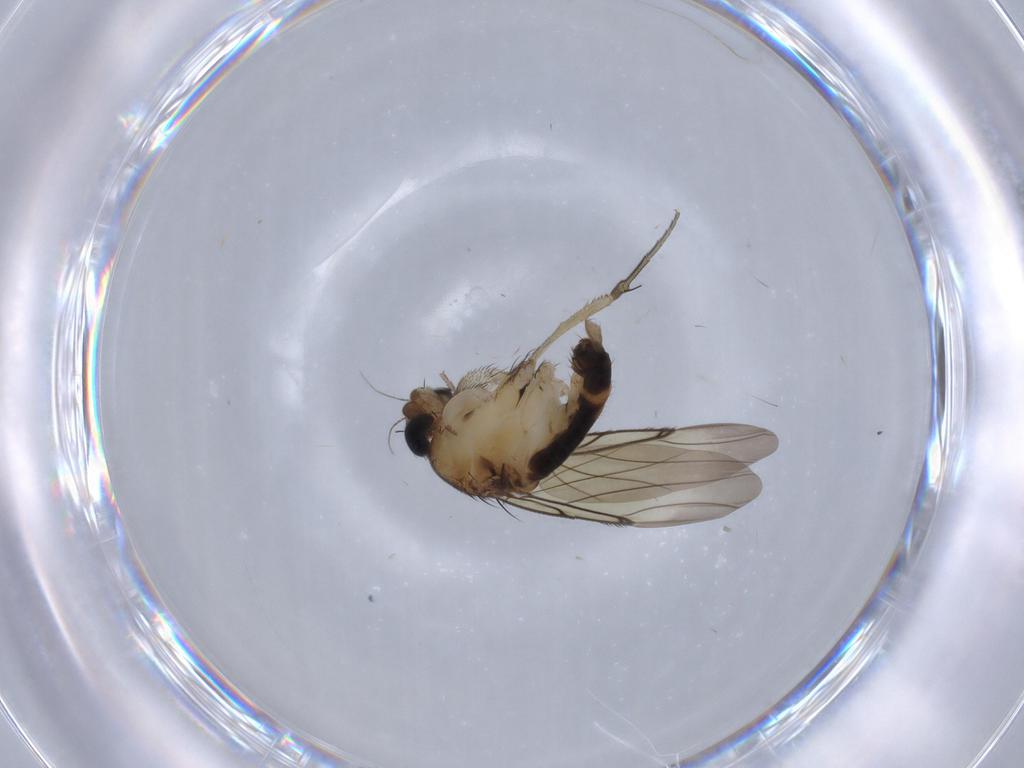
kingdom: Animalia
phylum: Arthropoda
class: Insecta
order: Diptera
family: Phoridae
